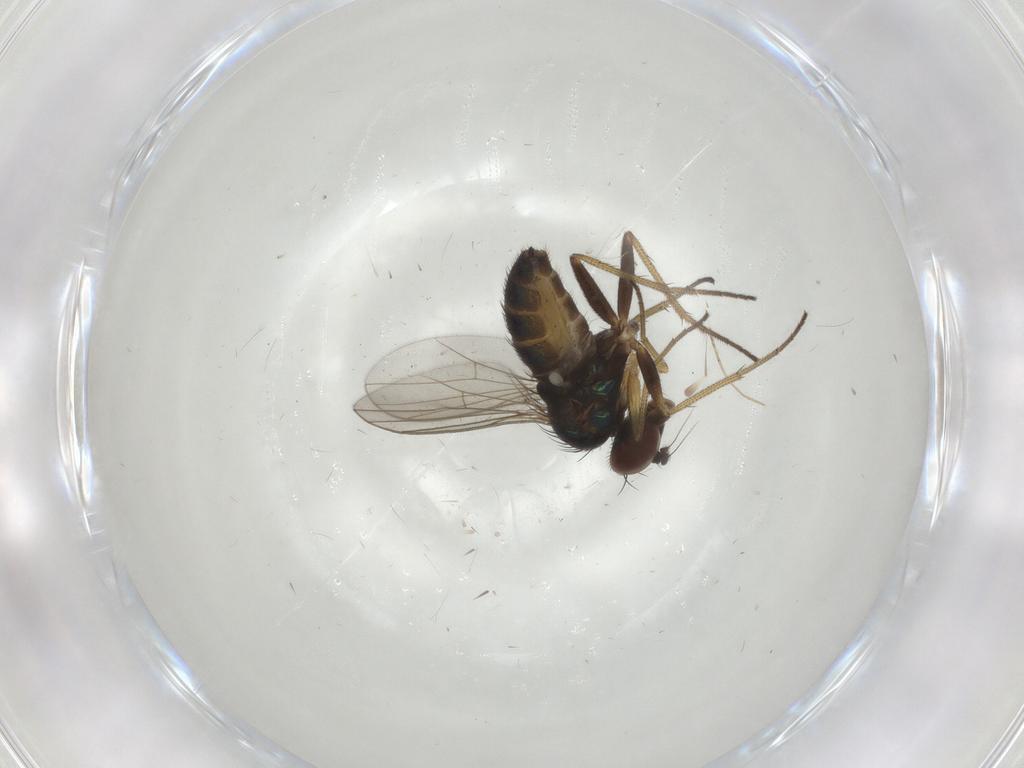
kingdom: Animalia
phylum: Arthropoda
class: Insecta
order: Diptera
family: Dolichopodidae
